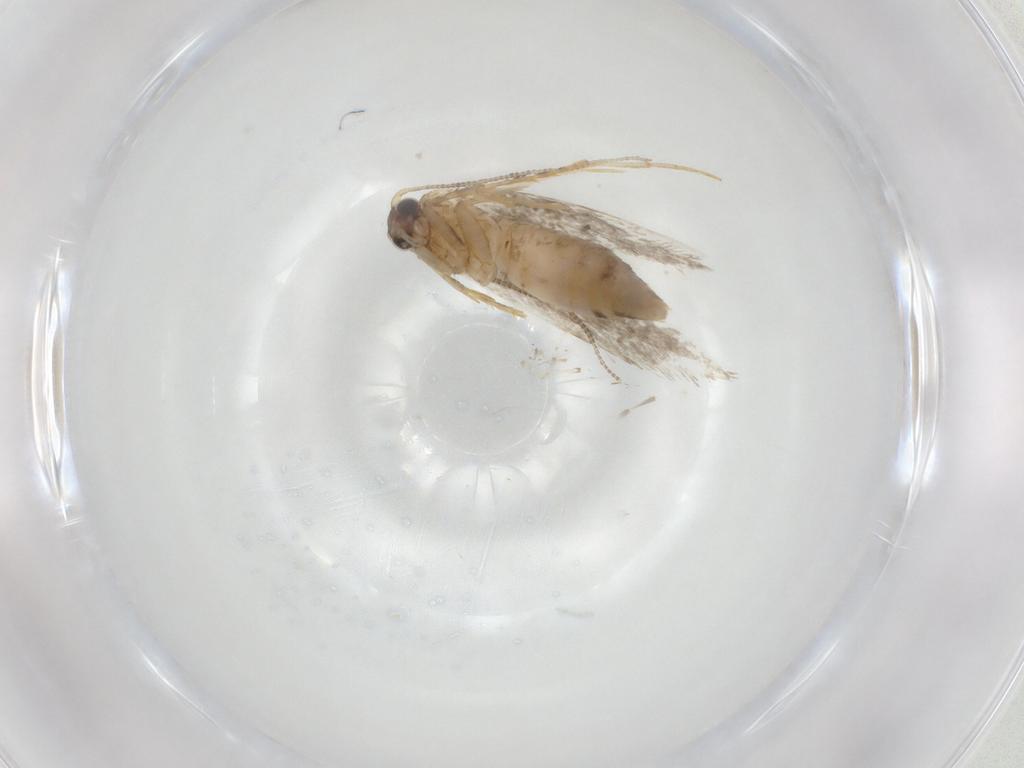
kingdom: Animalia
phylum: Arthropoda
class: Insecta
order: Lepidoptera
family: Tineidae
